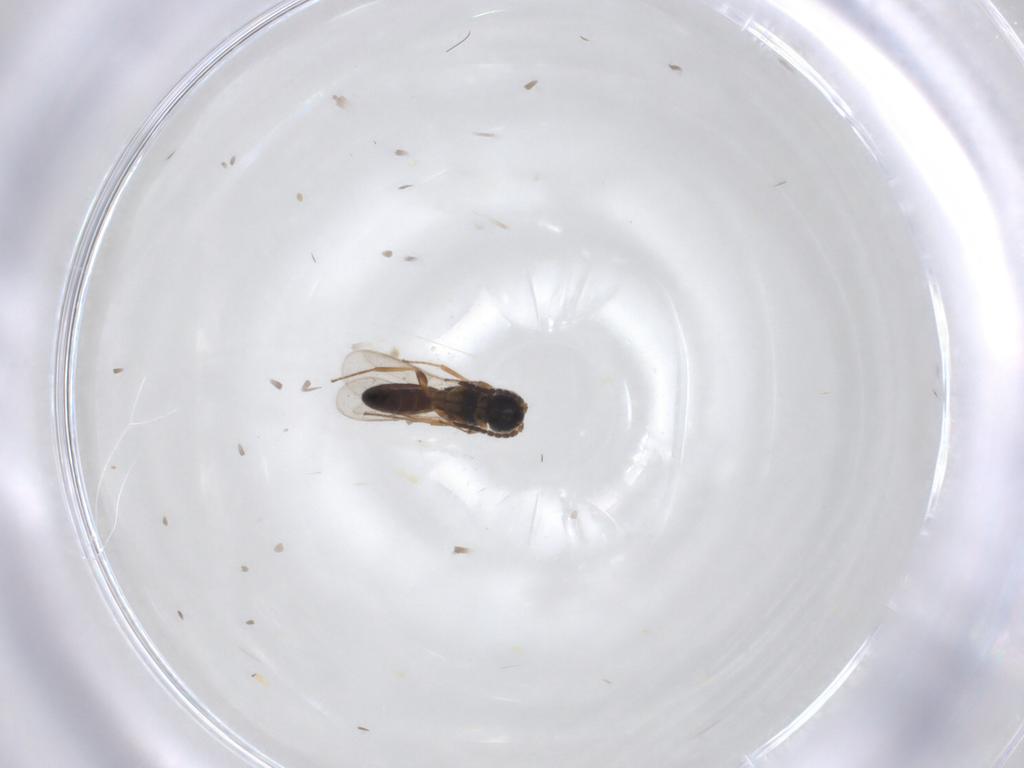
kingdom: Animalia
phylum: Arthropoda
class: Insecta
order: Hymenoptera
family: Scelionidae
